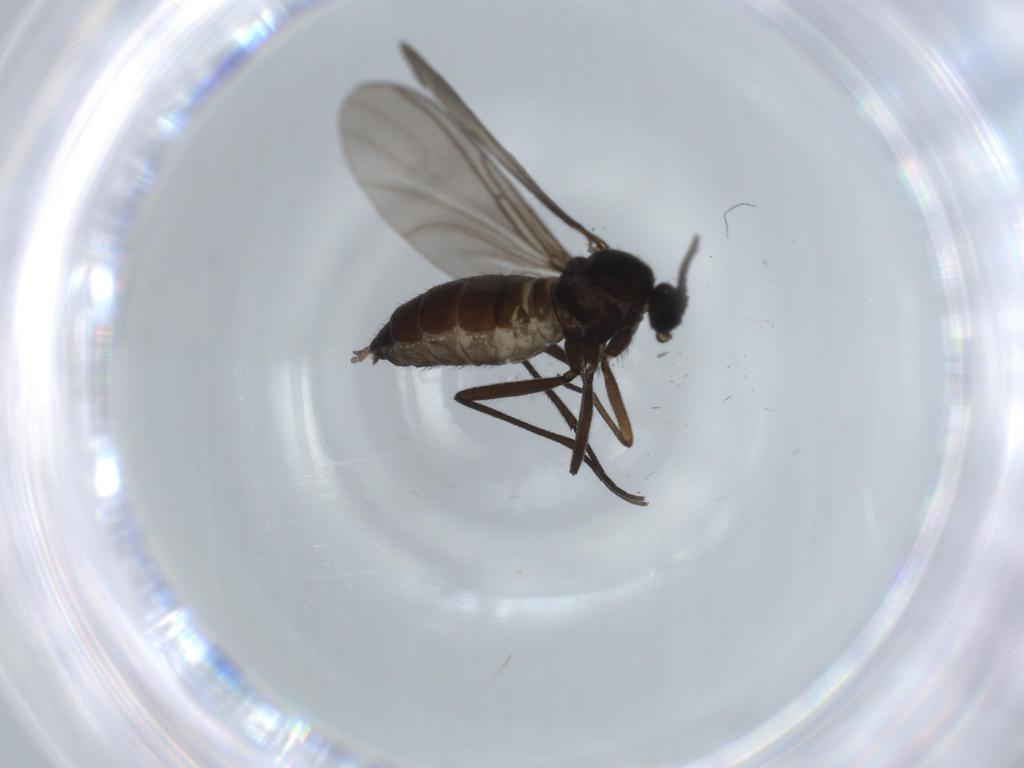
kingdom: Animalia
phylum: Arthropoda
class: Insecta
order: Diptera
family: Sciaridae
